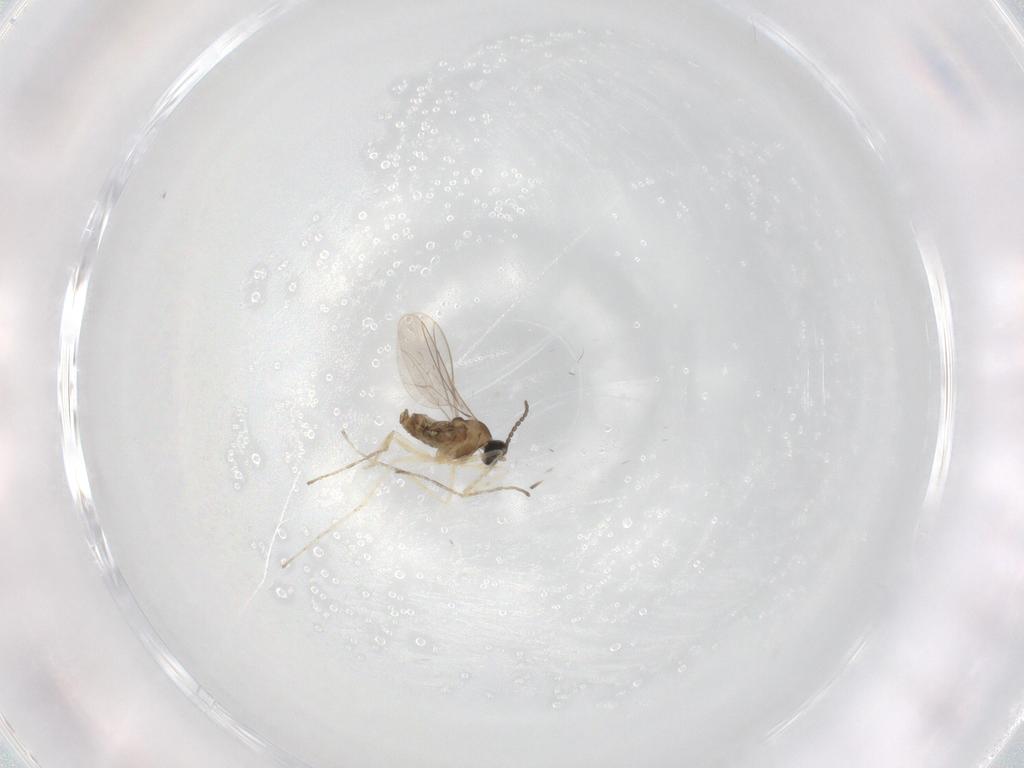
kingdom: Animalia
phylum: Arthropoda
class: Insecta
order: Diptera
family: Cecidomyiidae
